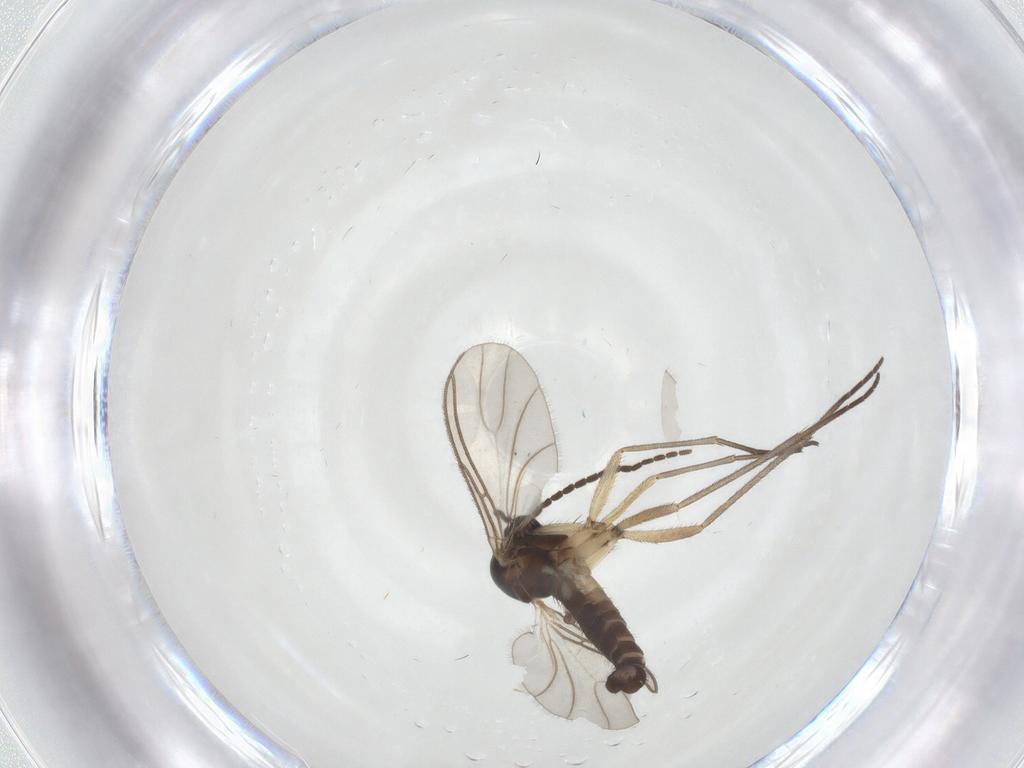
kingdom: Animalia
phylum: Arthropoda
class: Insecta
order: Diptera
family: Sciaridae
